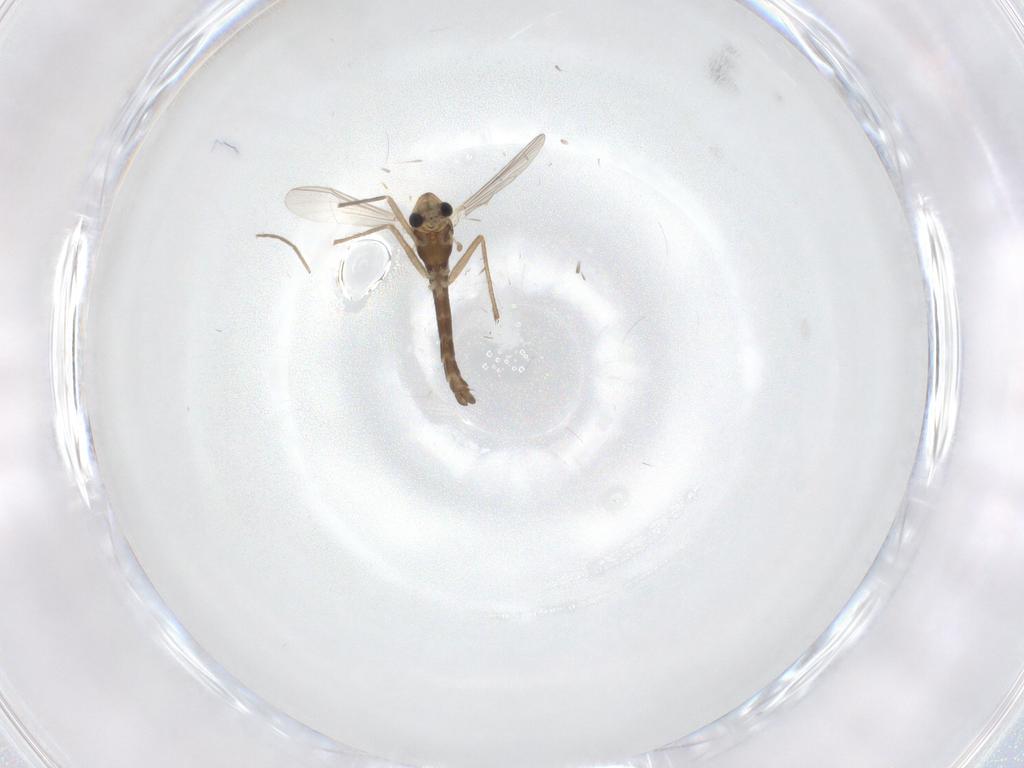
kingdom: Animalia
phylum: Arthropoda
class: Insecta
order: Diptera
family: Chironomidae
